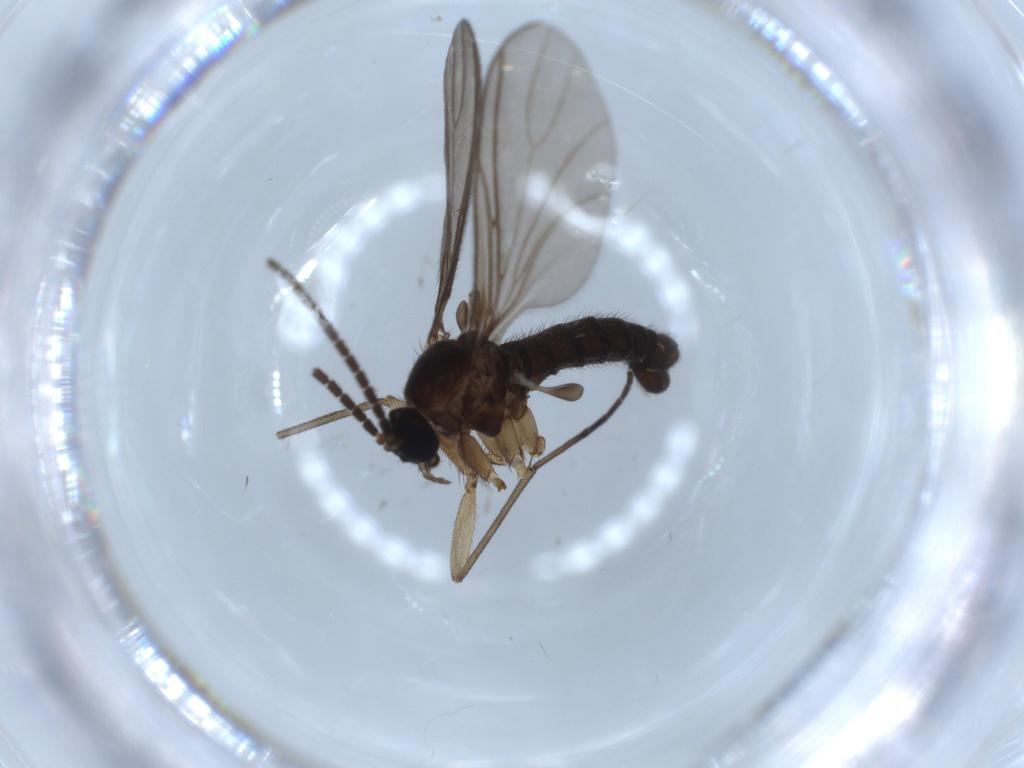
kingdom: Animalia
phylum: Arthropoda
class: Insecta
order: Diptera
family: Sciaridae
